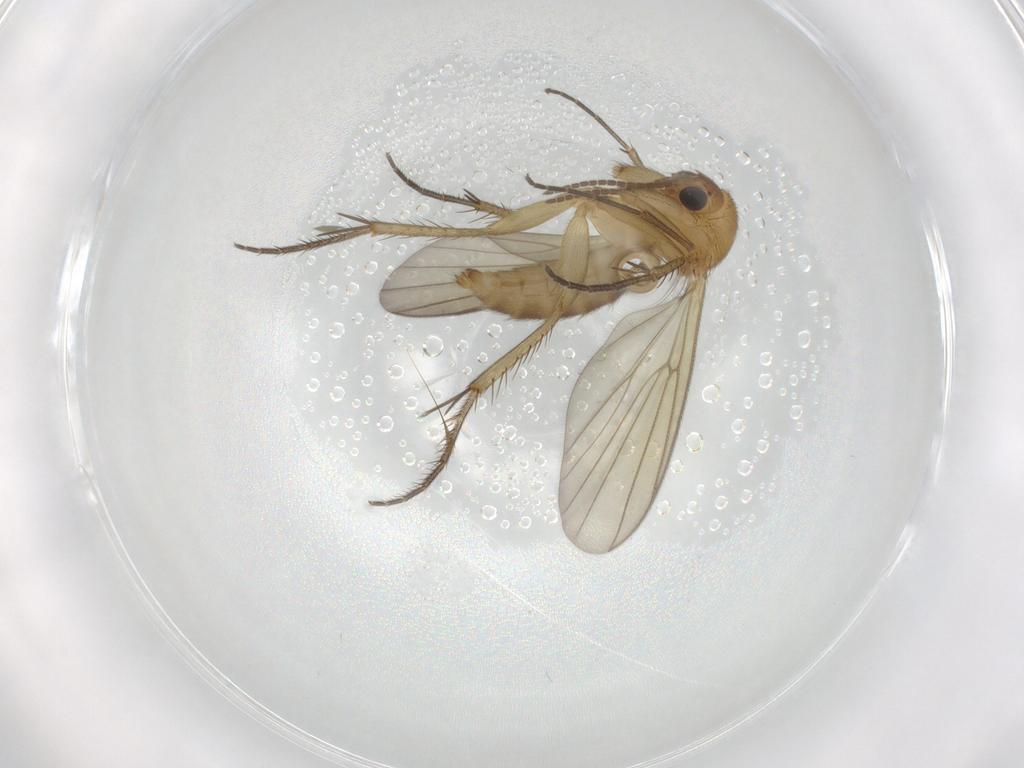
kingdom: Animalia
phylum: Arthropoda
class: Insecta
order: Diptera
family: Mycetophilidae
